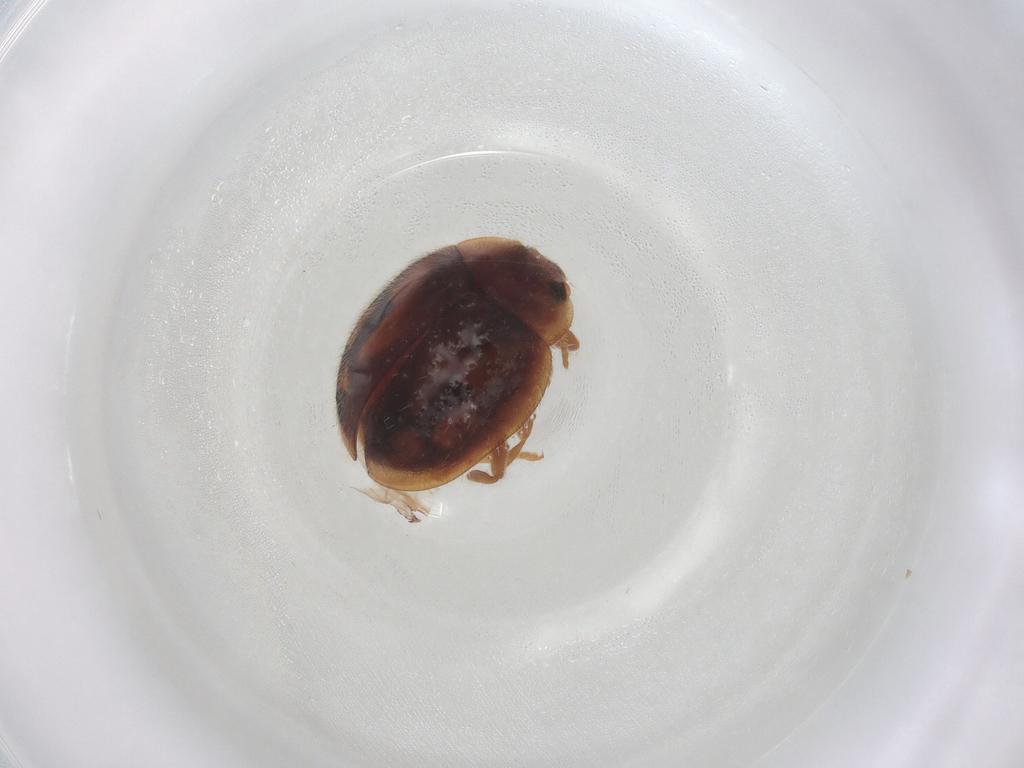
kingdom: Animalia
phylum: Arthropoda
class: Insecta
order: Coleoptera
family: Coccinellidae
